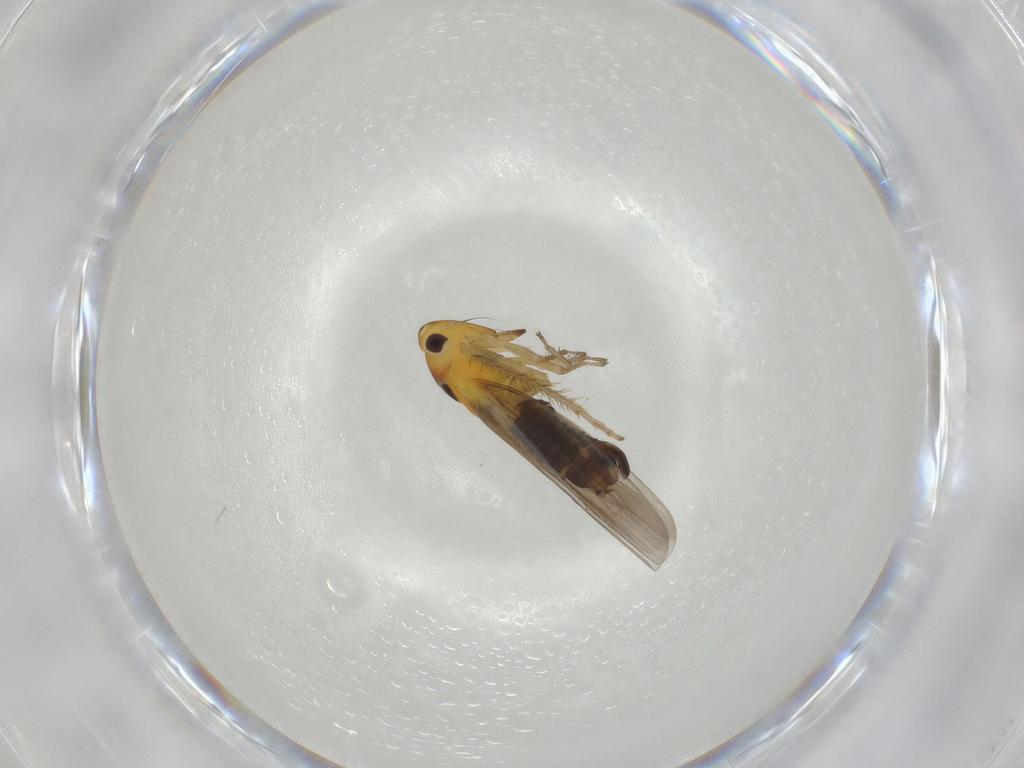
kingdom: Animalia
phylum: Arthropoda
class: Insecta
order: Hemiptera
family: Cicadellidae
